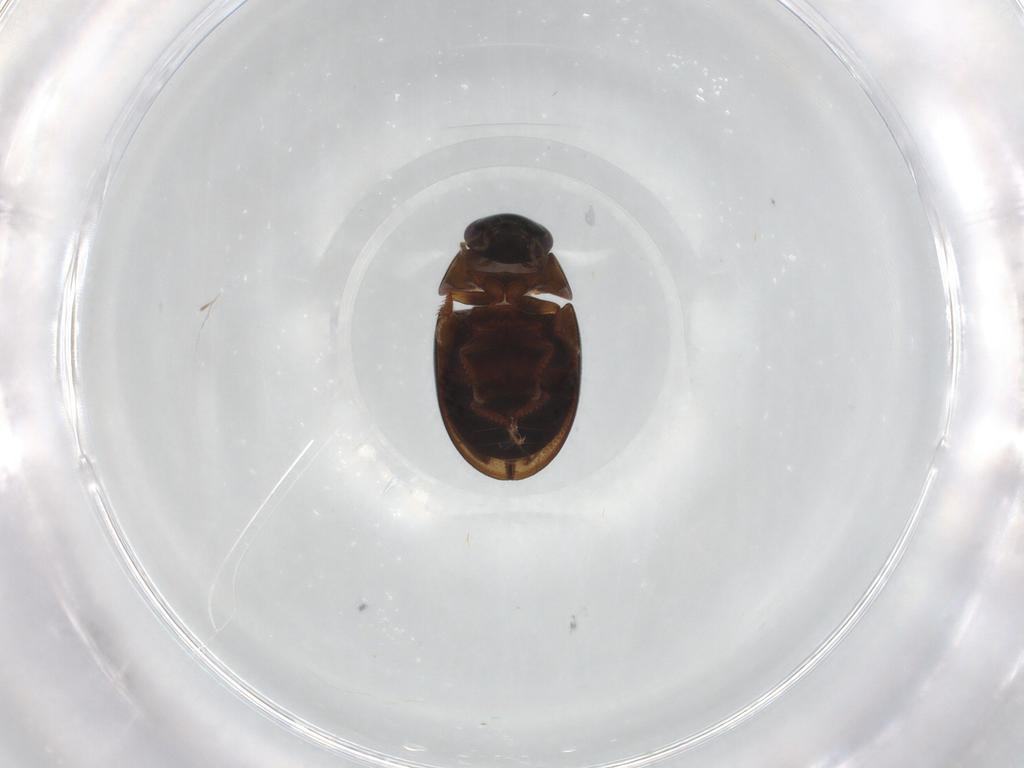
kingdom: Animalia
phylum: Arthropoda
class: Insecta
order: Coleoptera
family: Hydrophilidae
